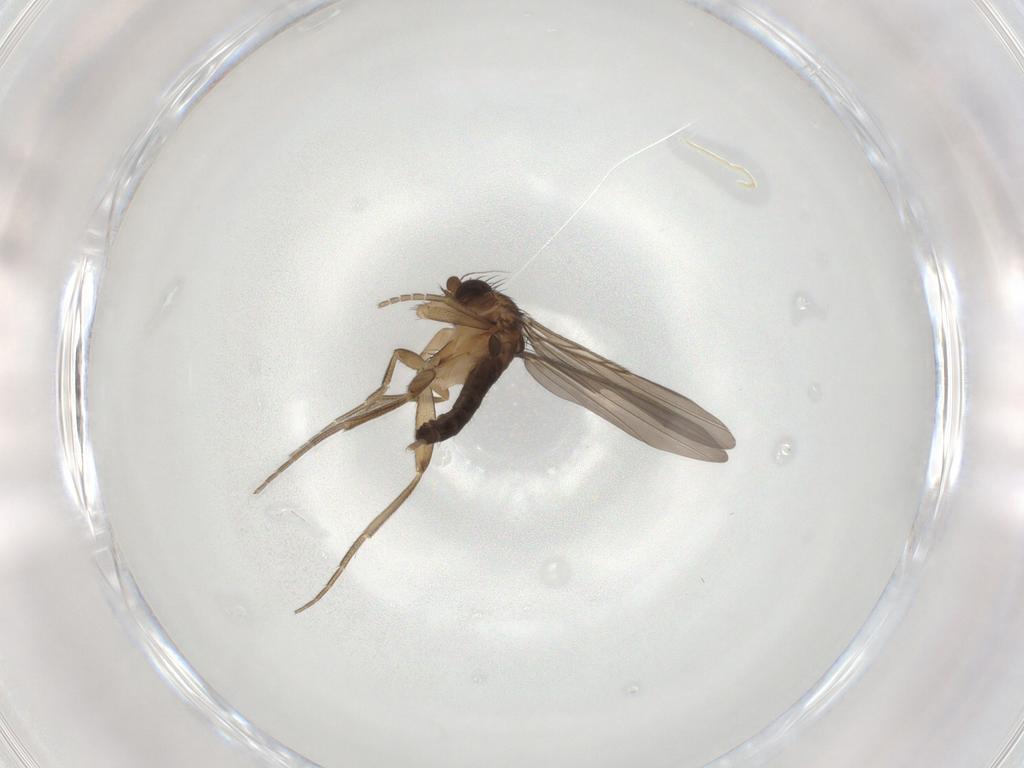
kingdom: Animalia
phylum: Arthropoda
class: Insecta
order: Diptera
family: Phoridae
